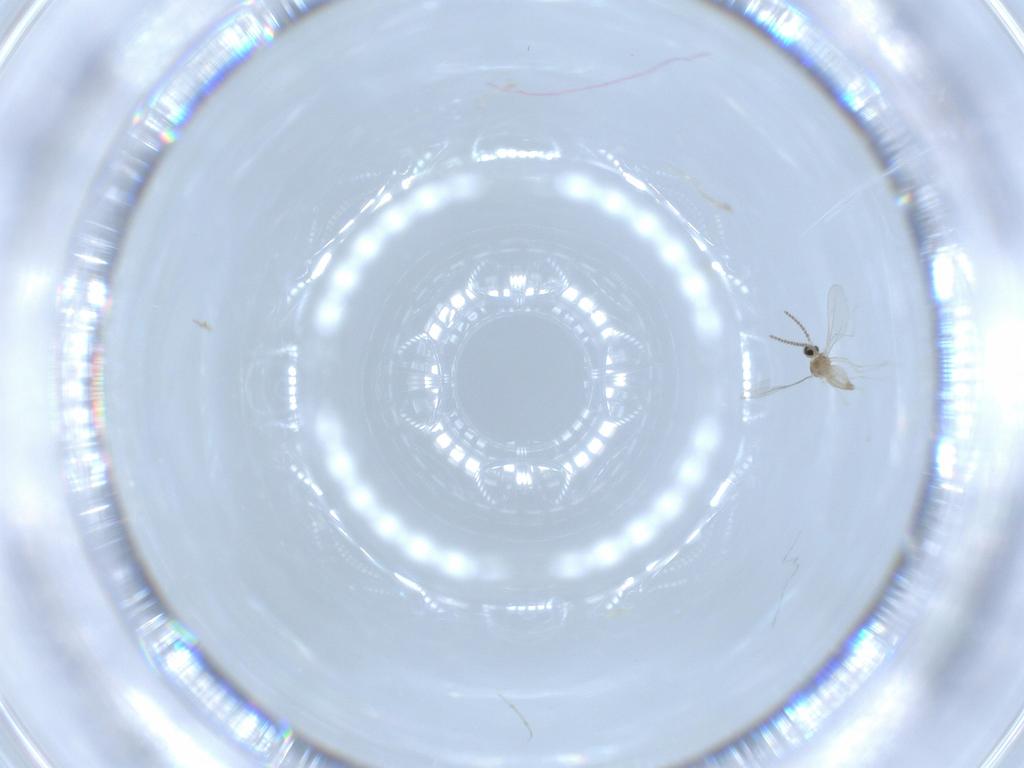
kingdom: Animalia
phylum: Arthropoda
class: Insecta
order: Diptera
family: Cecidomyiidae
